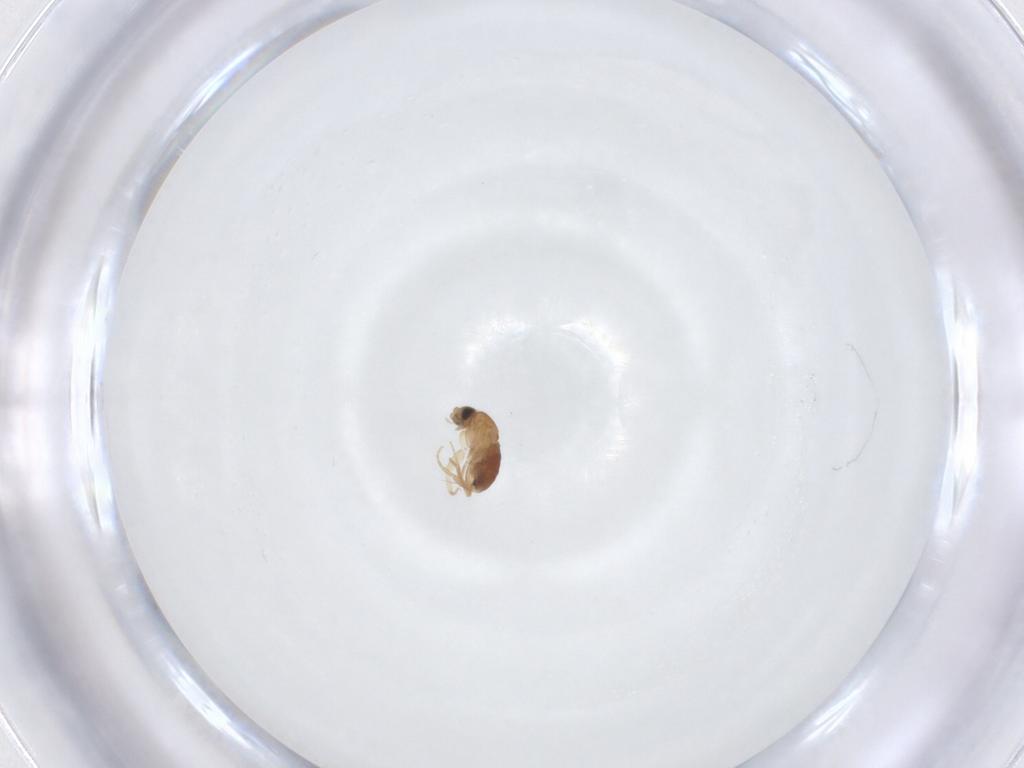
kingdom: Animalia
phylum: Arthropoda
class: Insecta
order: Diptera
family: Phoridae
